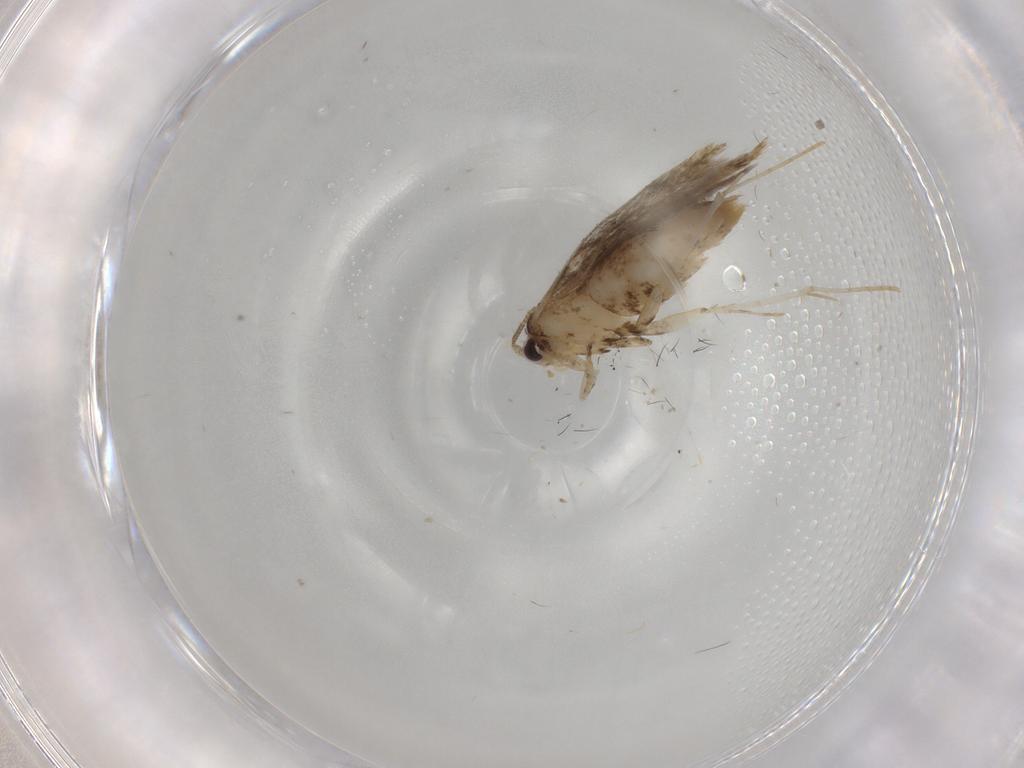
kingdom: Animalia
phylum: Arthropoda
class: Insecta
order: Lepidoptera
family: Tineidae
